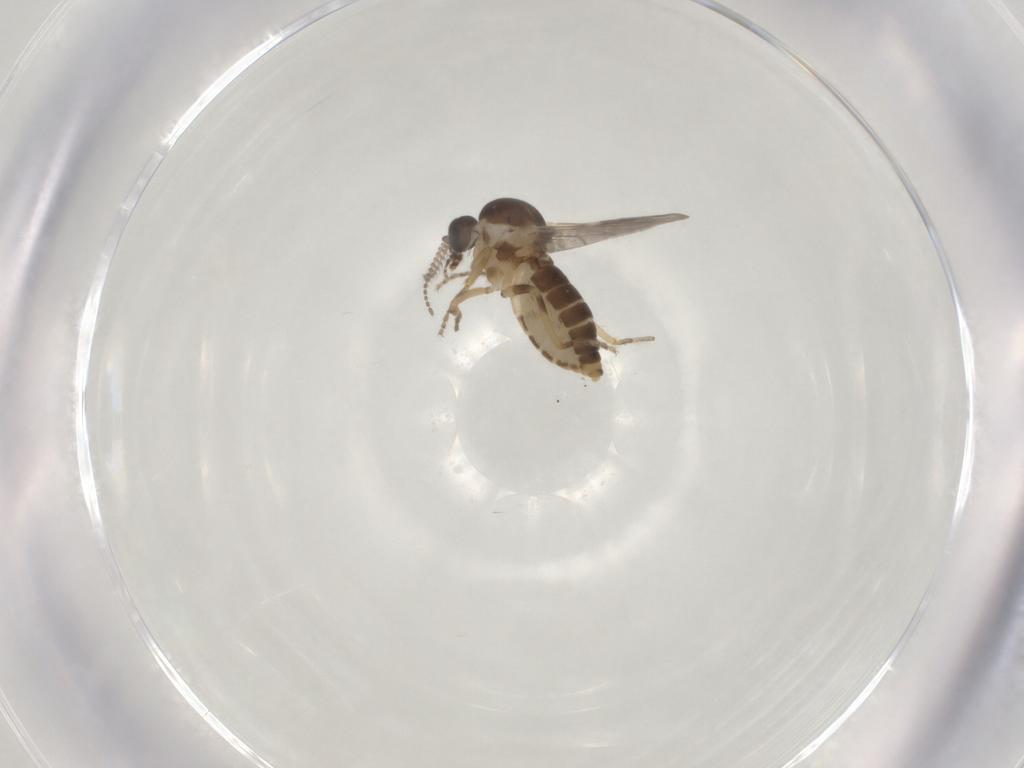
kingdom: Animalia
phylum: Arthropoda
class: Insecta
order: Diptera
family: Ceratopogonidae
